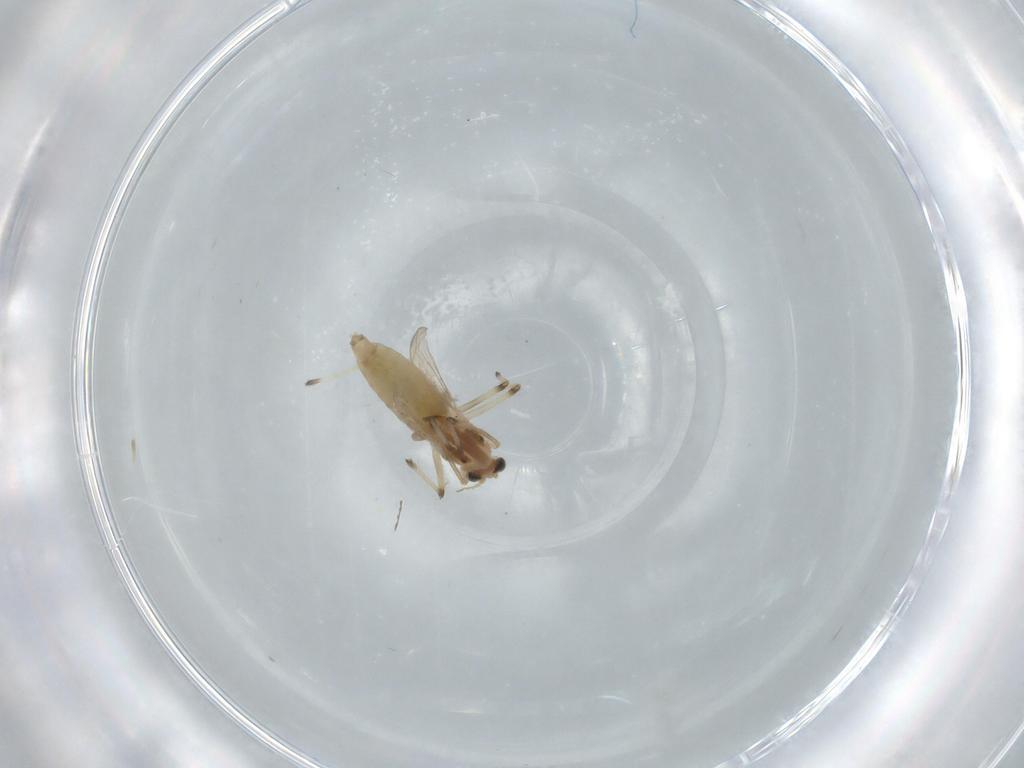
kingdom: Animalia
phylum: Arthropoda
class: Insecta
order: Diptera
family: Chironomidae
